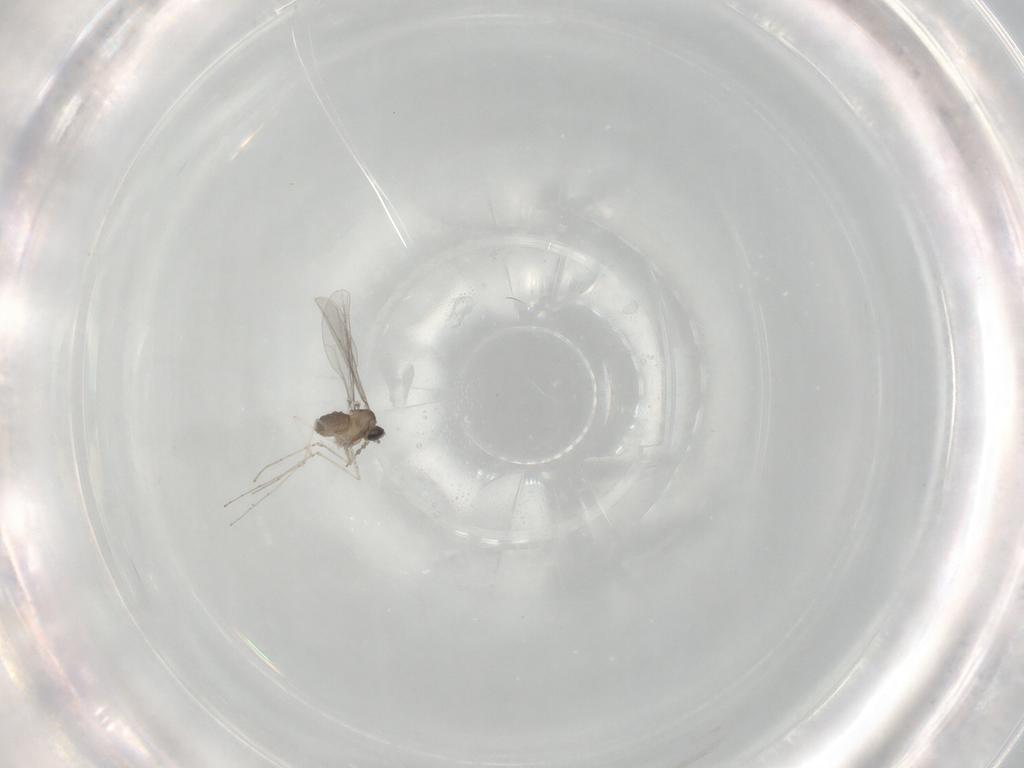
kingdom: Animalia
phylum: Arthropoda
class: Insecta
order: Diptera
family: Cecidomyiidae
